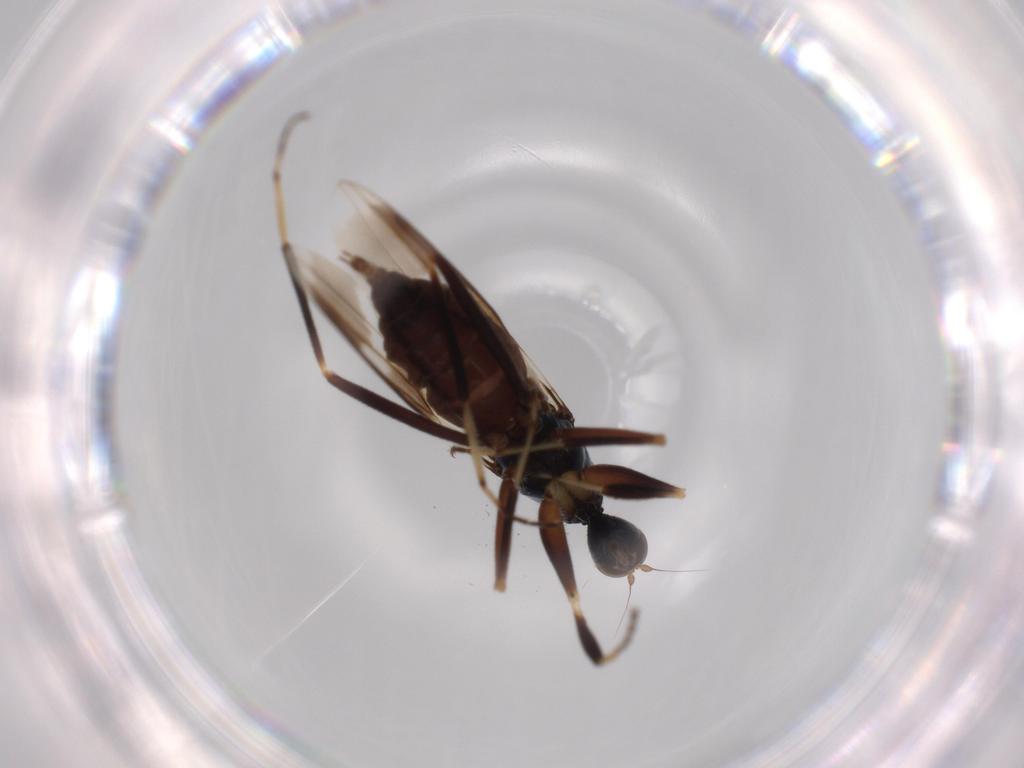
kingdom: Animalia
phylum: Arthropoda
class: Insecta
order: Diptera
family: Hybotidae
